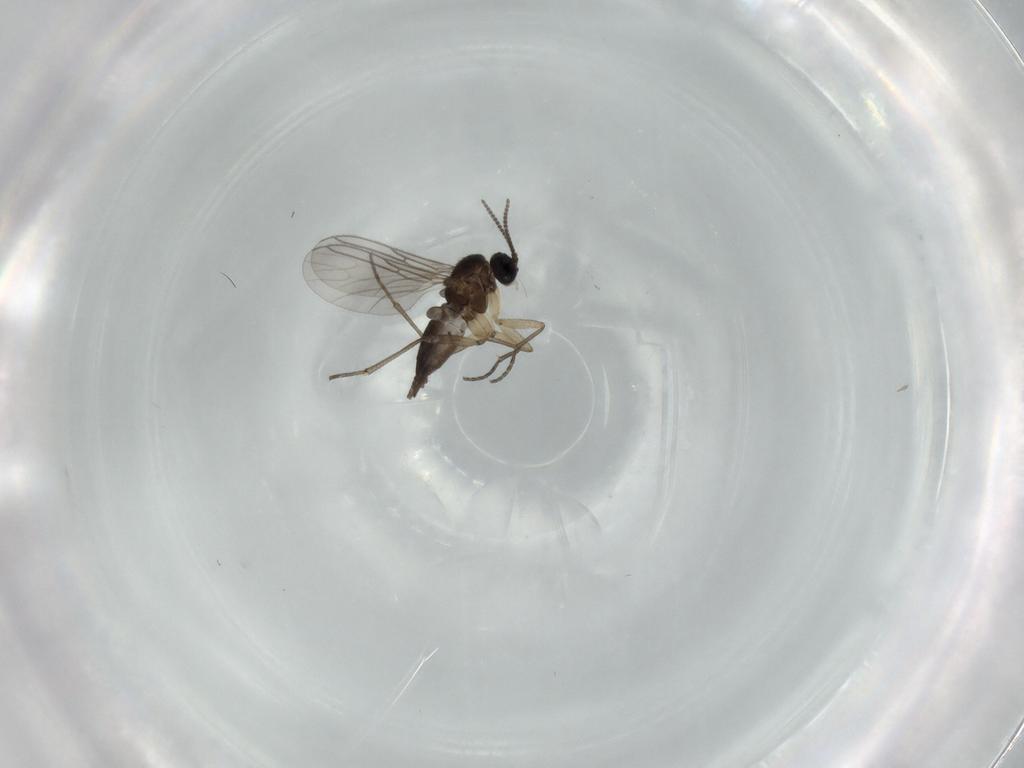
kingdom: Animalia
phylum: Arthropoda
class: Insecta
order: Diptera
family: Sciaridae
